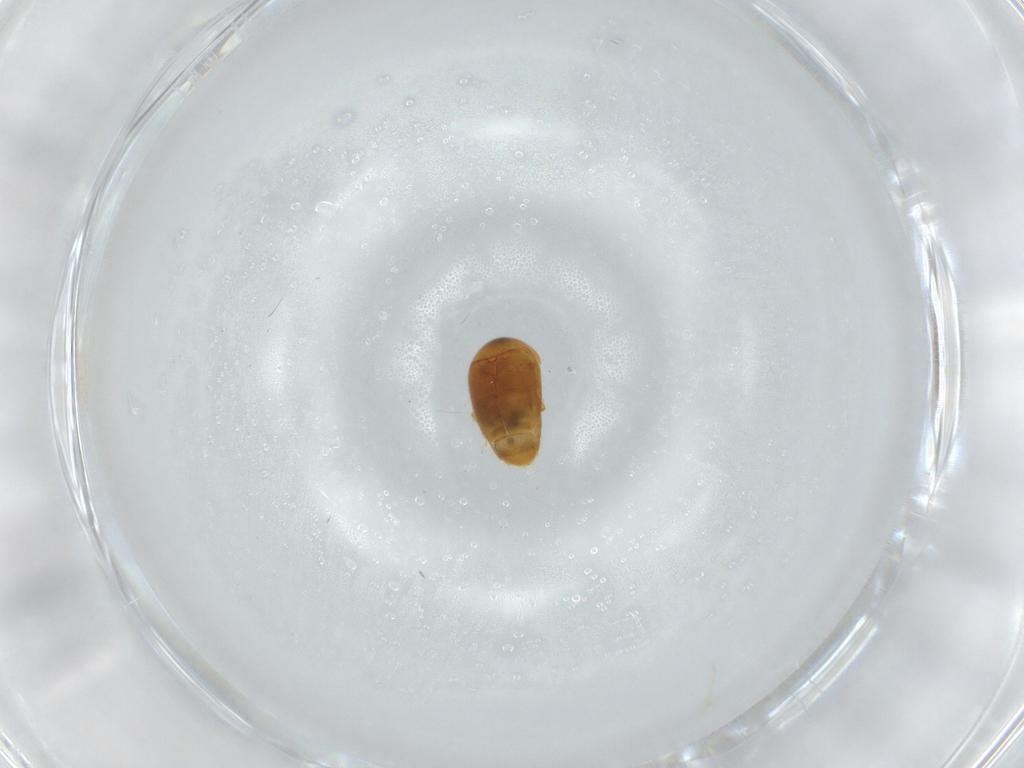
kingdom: Animalia
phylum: Arthropoda
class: Insecta
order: Coleoptera
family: Corylophidae
